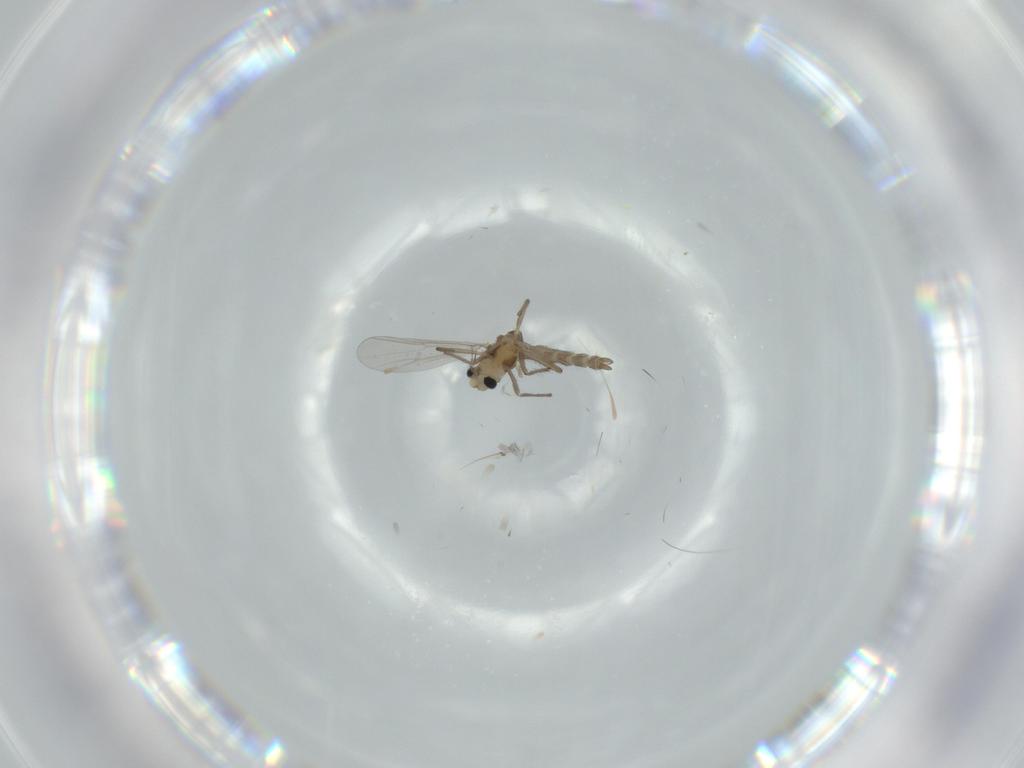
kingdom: Animalia
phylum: Arthropoda
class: Insecta
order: Diptera
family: Chironomidae
